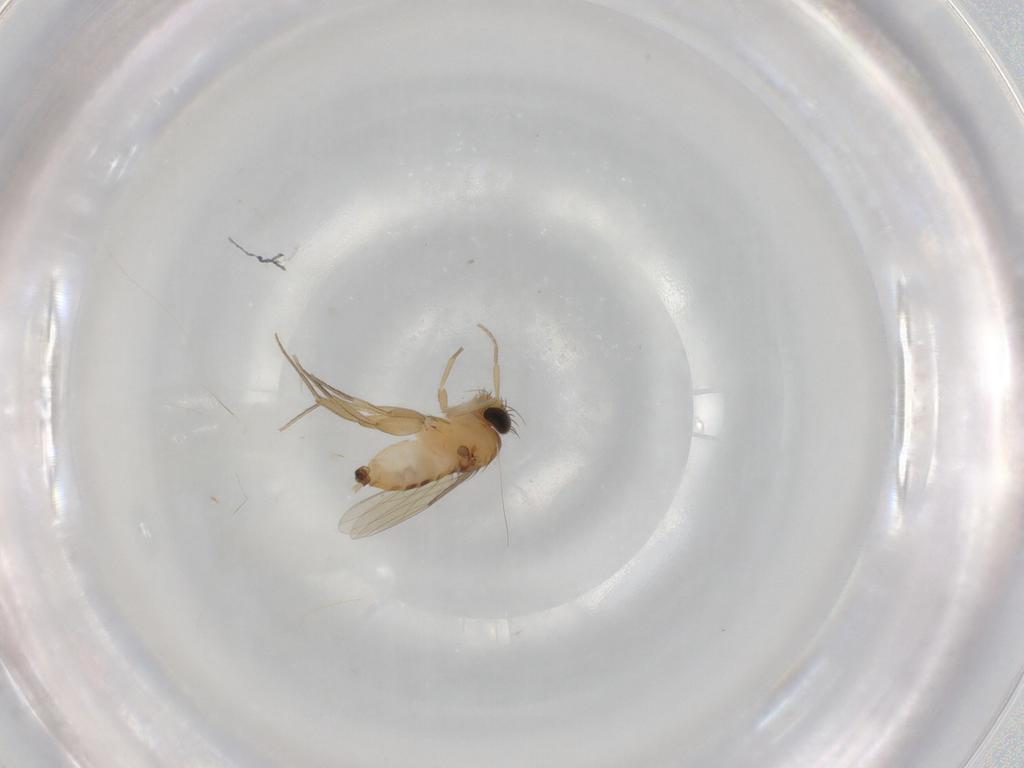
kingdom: Animalia
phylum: Arthropoda
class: Insecta
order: Diptera
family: Phoridae
